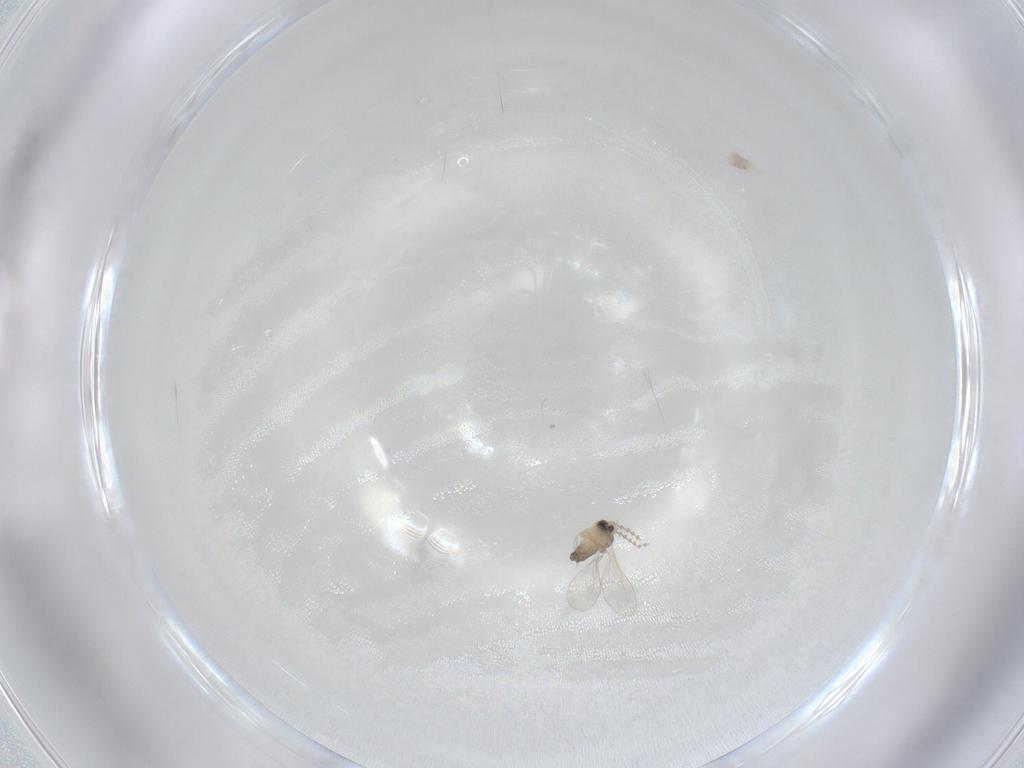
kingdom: Animalia
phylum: Arthropoda
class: Insecta
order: Diptera
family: Cecidomyiidae
